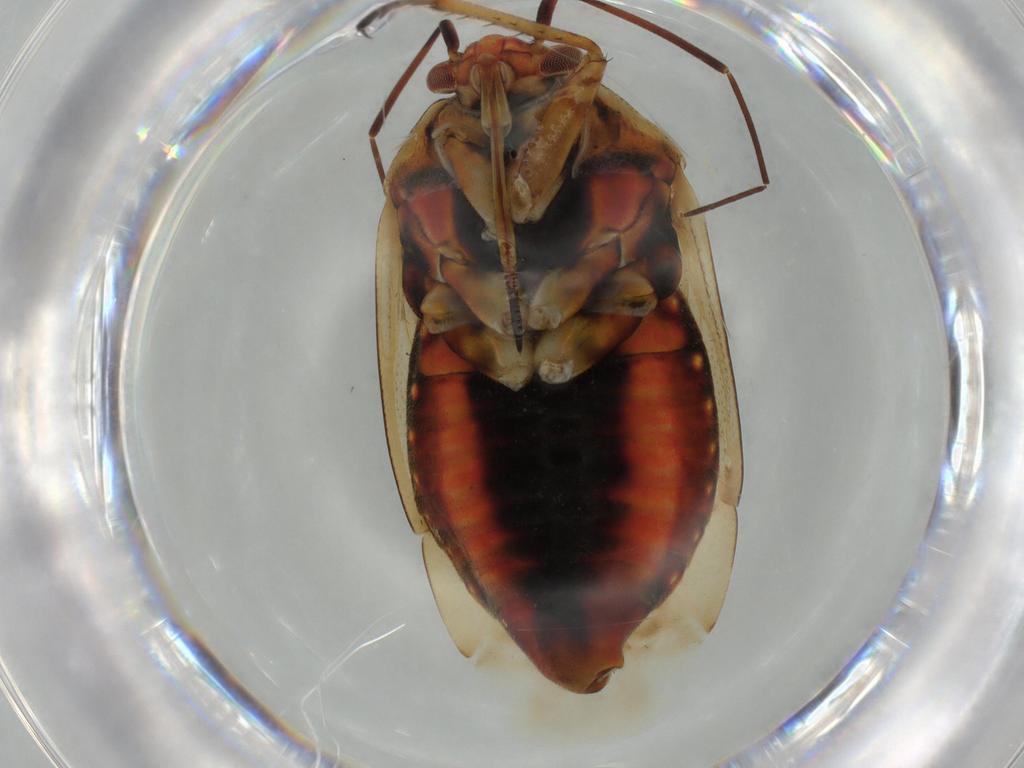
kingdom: Animalia
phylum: Arthropoda
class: Insecta
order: Hemiptera
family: Miridae
